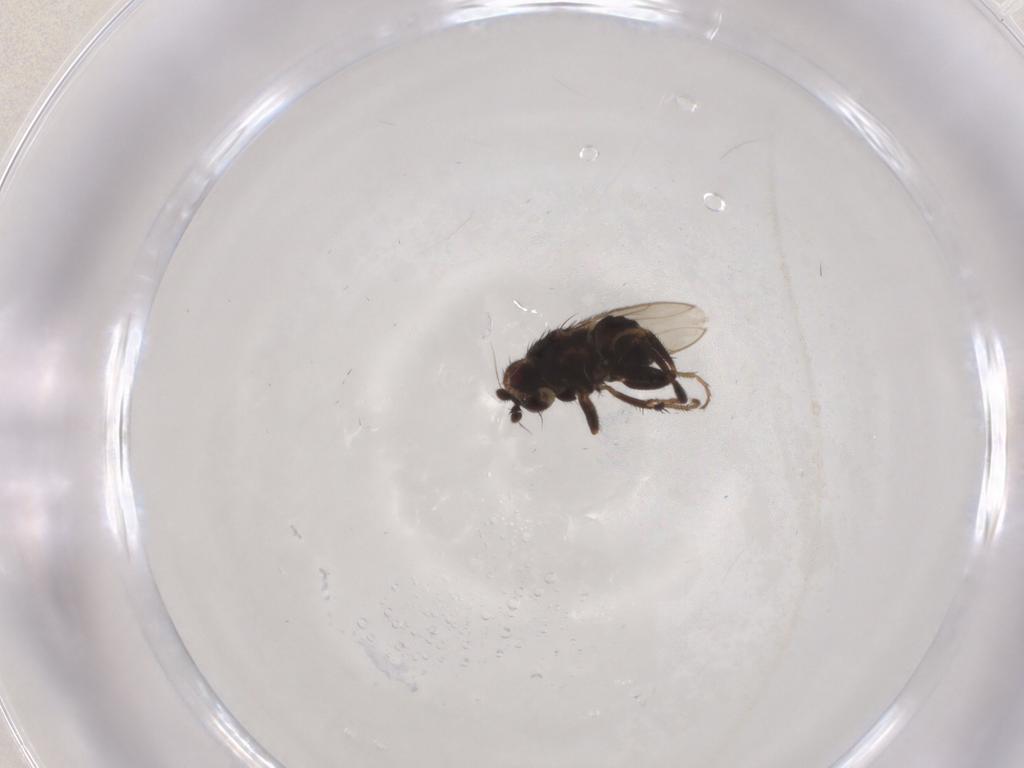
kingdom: Animalia
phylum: Arthropoda
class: Insecta
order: Diptera
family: Sphaeroceridae
